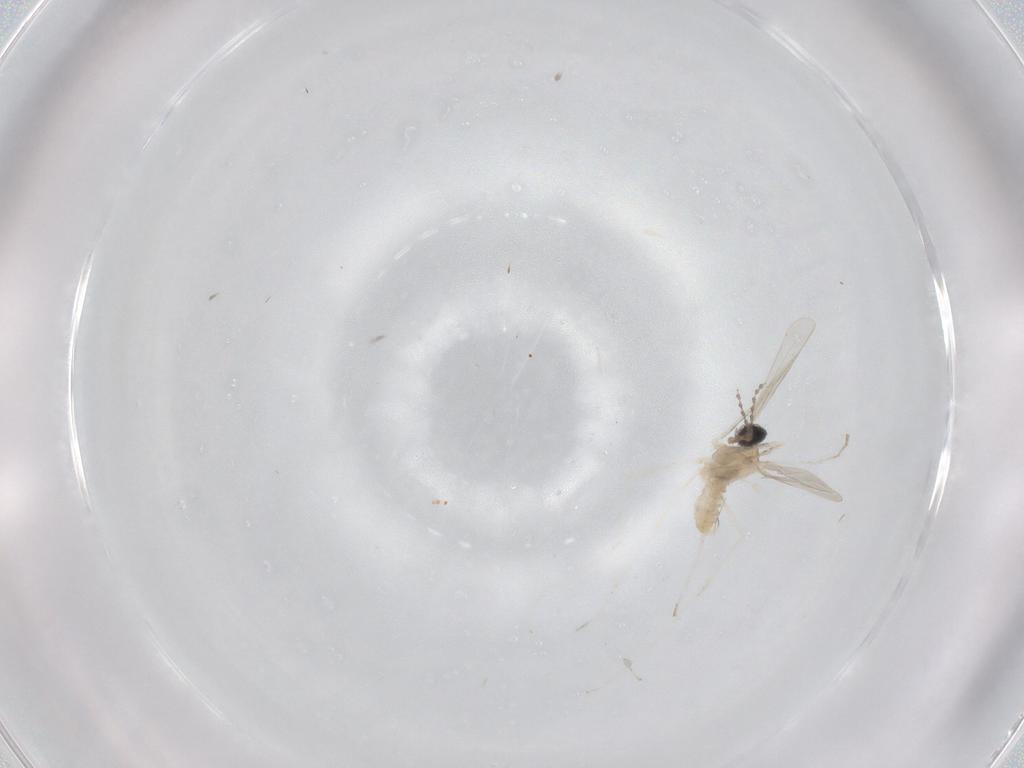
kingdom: Animalia
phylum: Arthropoda
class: Insecta
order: Diptera
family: Cecidomyiidae
